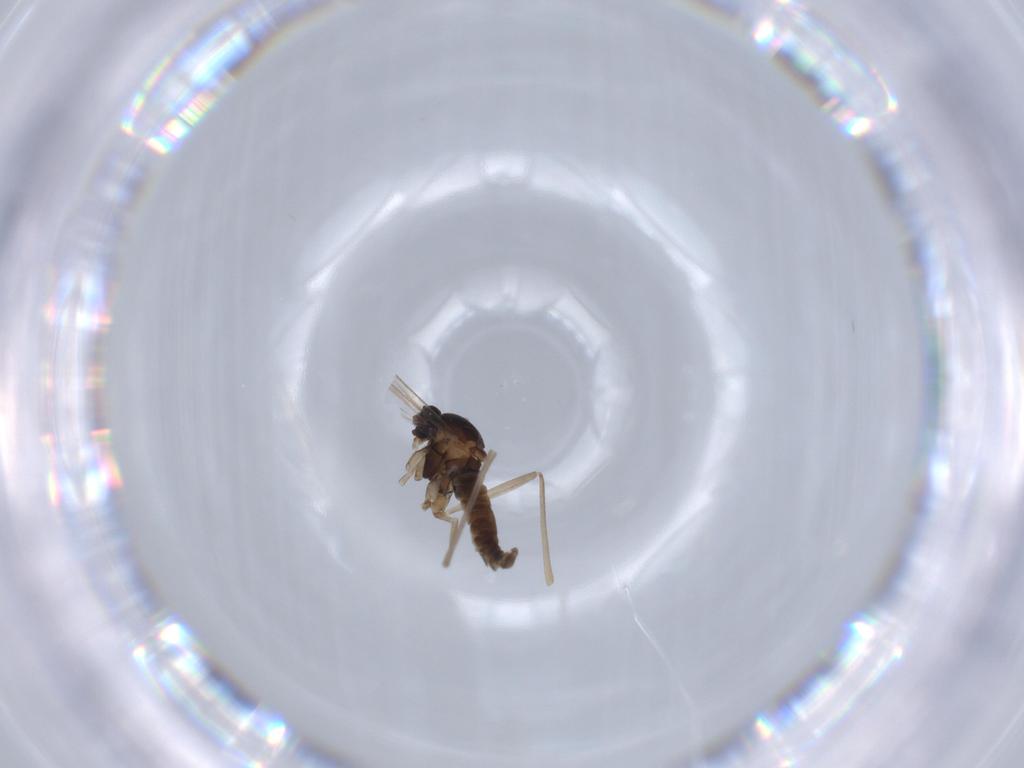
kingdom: Animalia
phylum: Arthropoda
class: Insecta
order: Diptera
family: Cecidomyiidae
